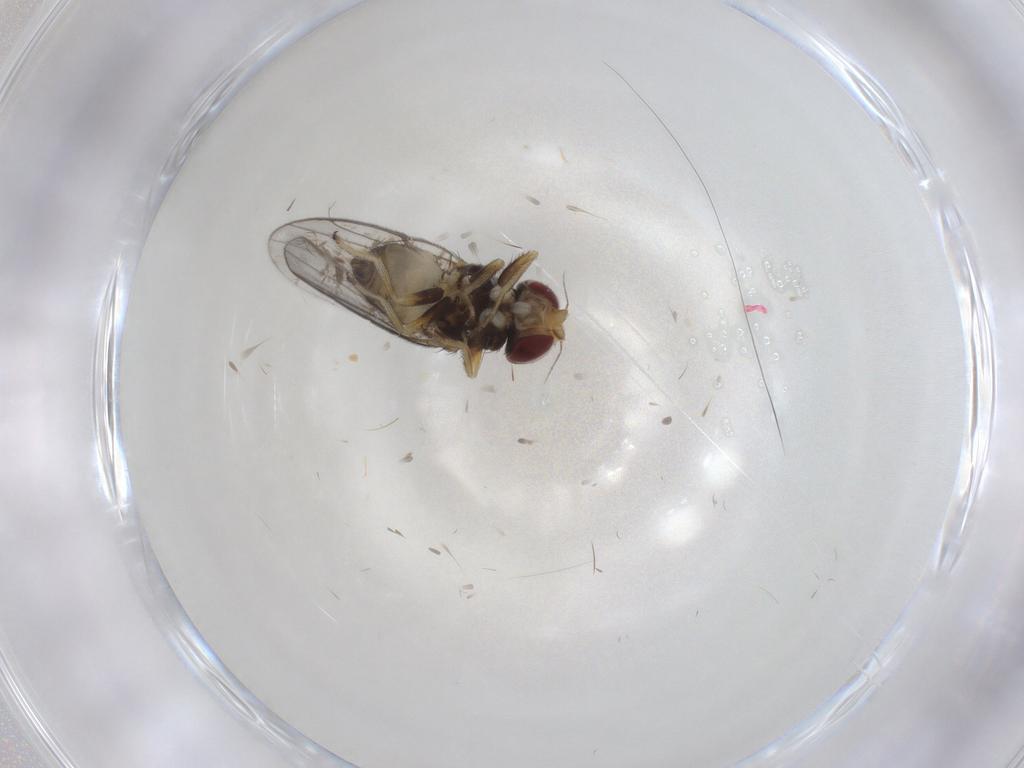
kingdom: Animalia
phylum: Arthropoda
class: Insecta
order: Diptera
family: Chloropidae
